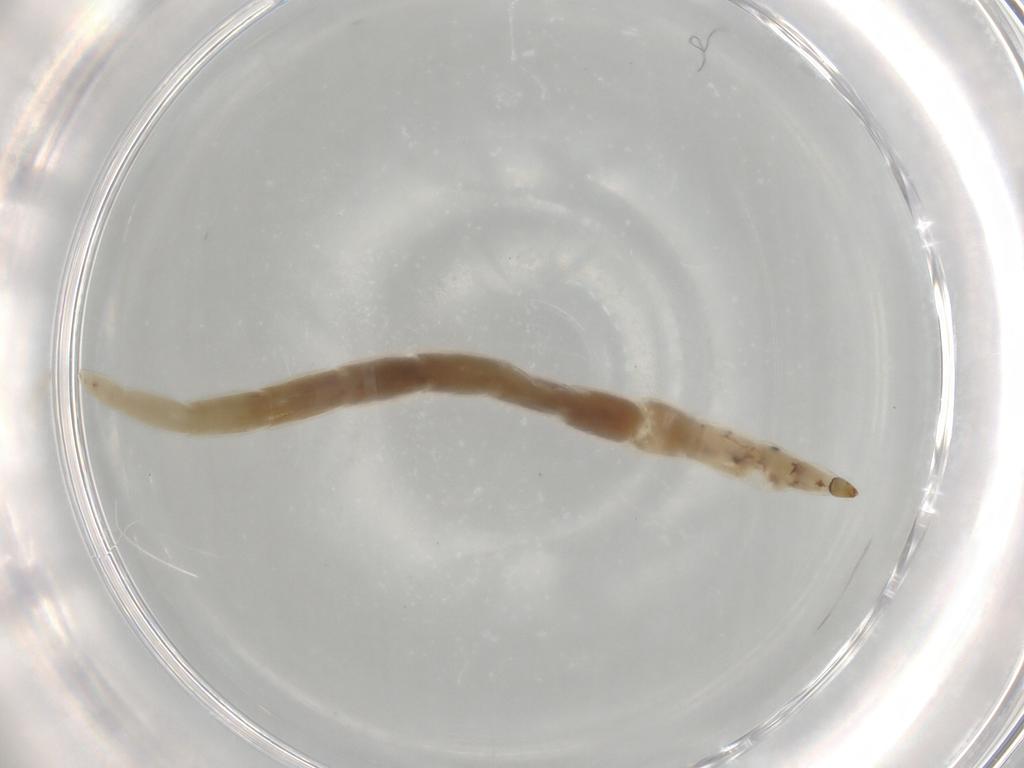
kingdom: Animalia
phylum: Arthropoda
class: Insecta
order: Diptera
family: Ceratopogonidae
